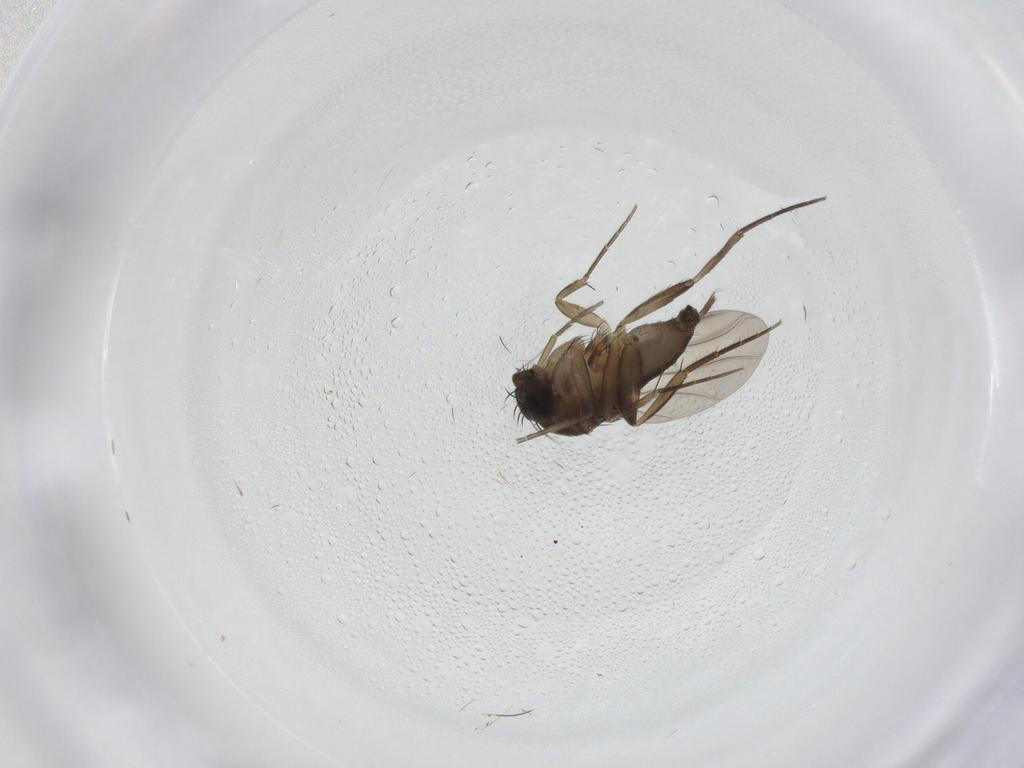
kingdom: Animalia
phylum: Arthropoda
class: Insecta
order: Diptera
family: Phoridae
